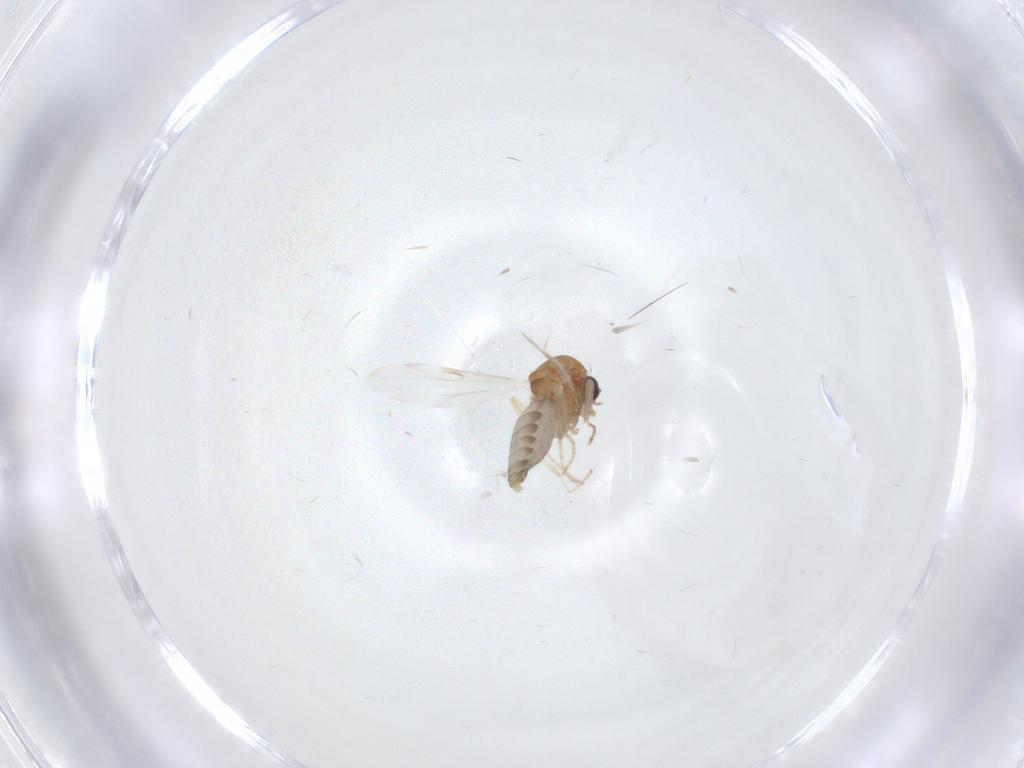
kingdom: Animalia
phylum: Arthropoda
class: Insecta
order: Diptera
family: Ceratopogonidae
